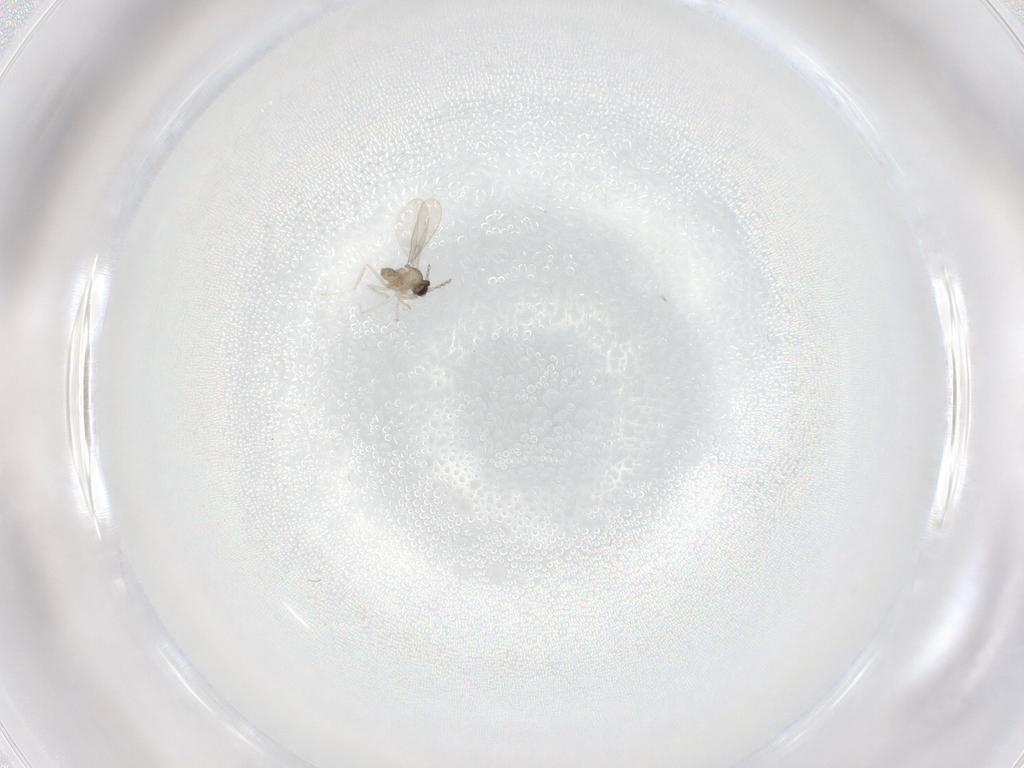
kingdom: Animalia
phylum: Arthropoda
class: Insecta
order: Diptera
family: Cecidomyiidae
